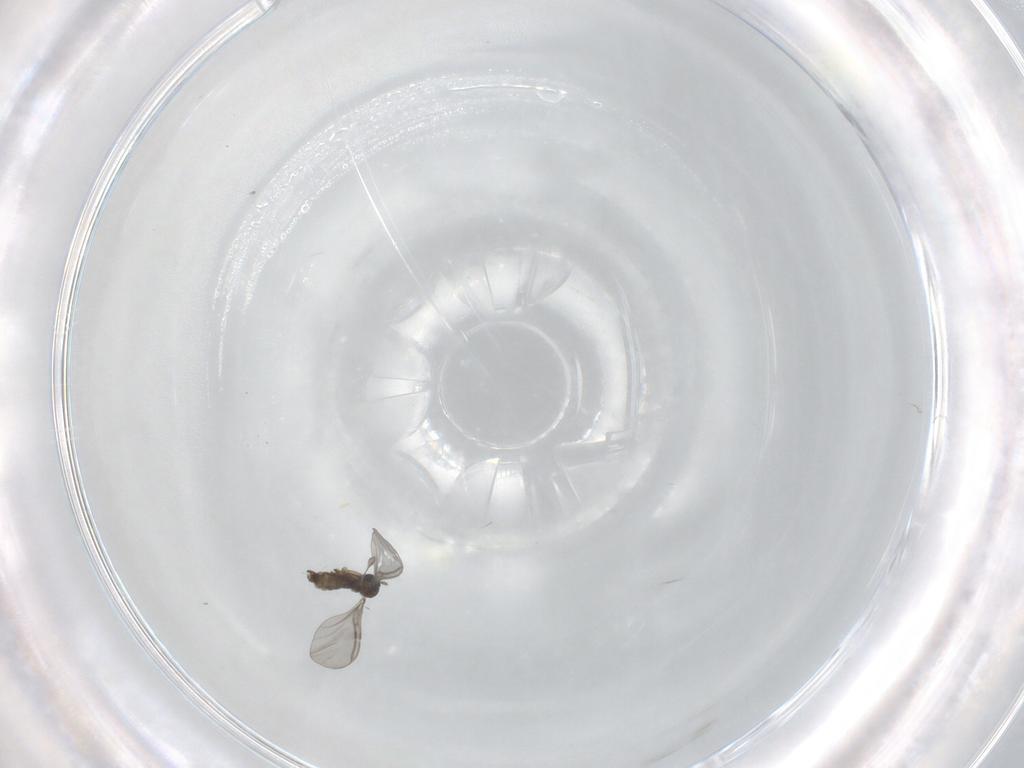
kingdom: Animalia
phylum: Arthropoda
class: Insecta
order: Diptera
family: Sciaridae
